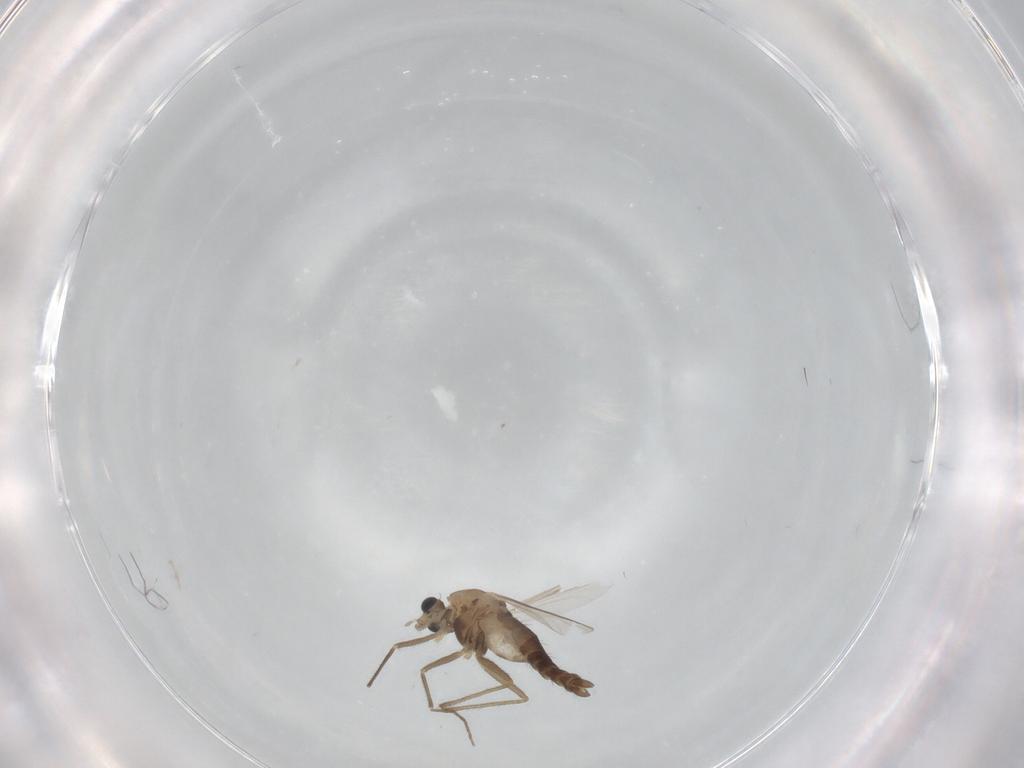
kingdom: Animalia
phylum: Arthropoda
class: Insecta
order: Diptera
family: Chironomidae
